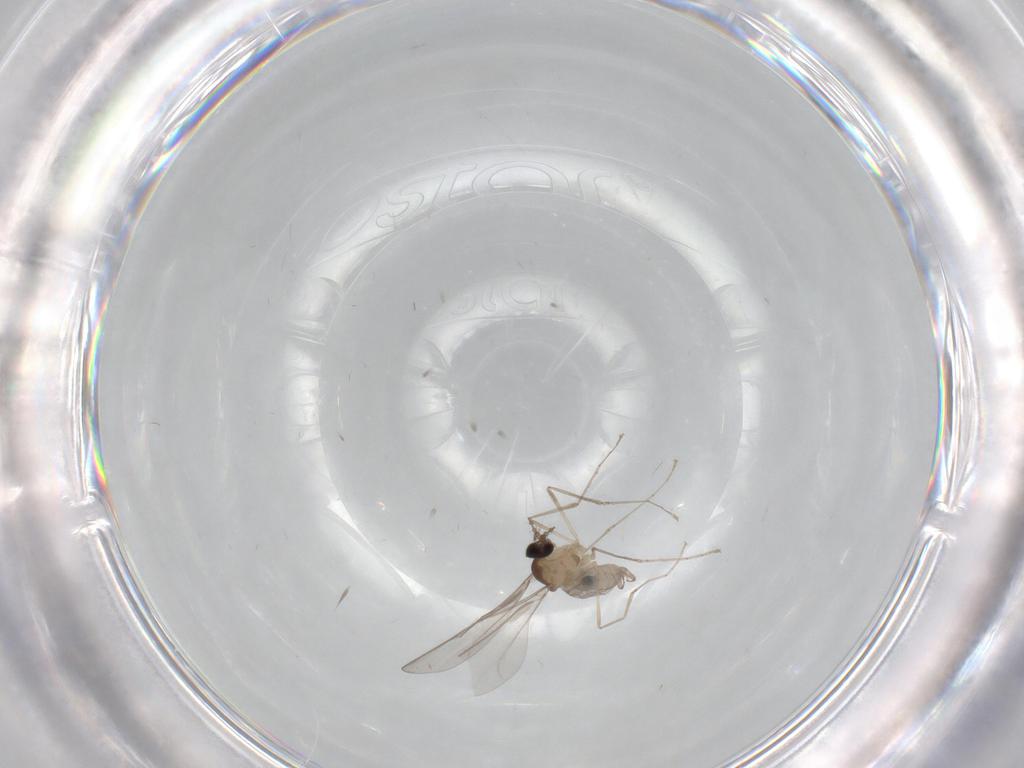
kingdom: Animalia
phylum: Arthropoda
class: Insecta
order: Diptera
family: Cecidomyiidae
